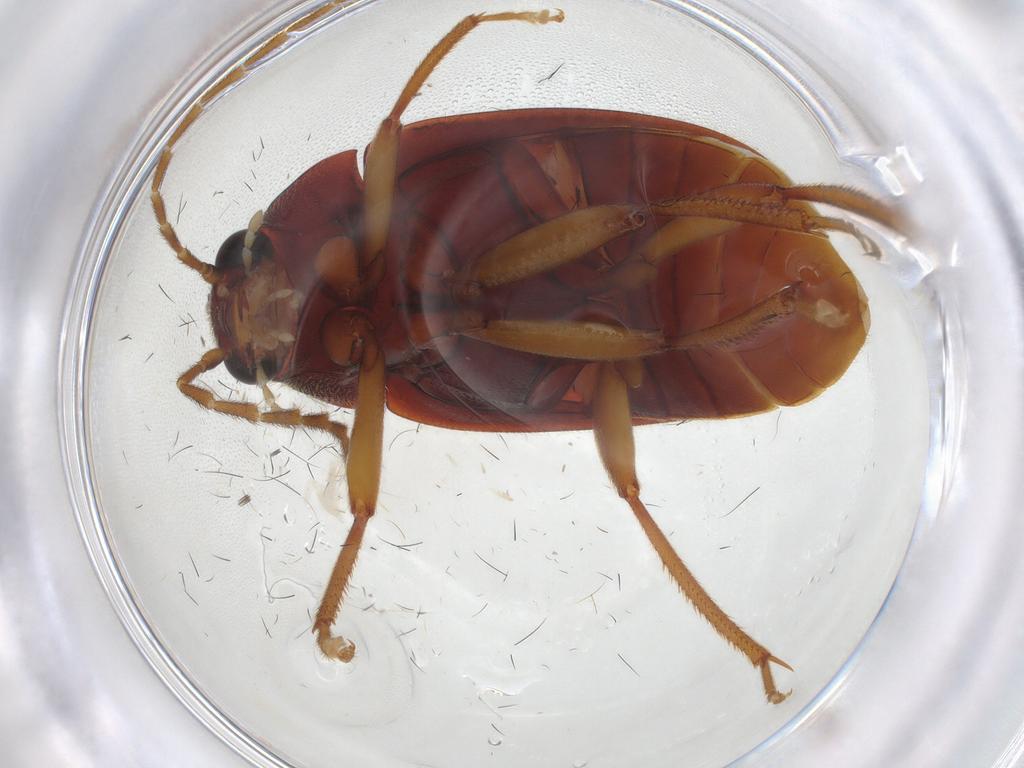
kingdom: Animalia
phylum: Arthropoda
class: Insecta
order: Coleoptera
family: Ptilodactylidae
